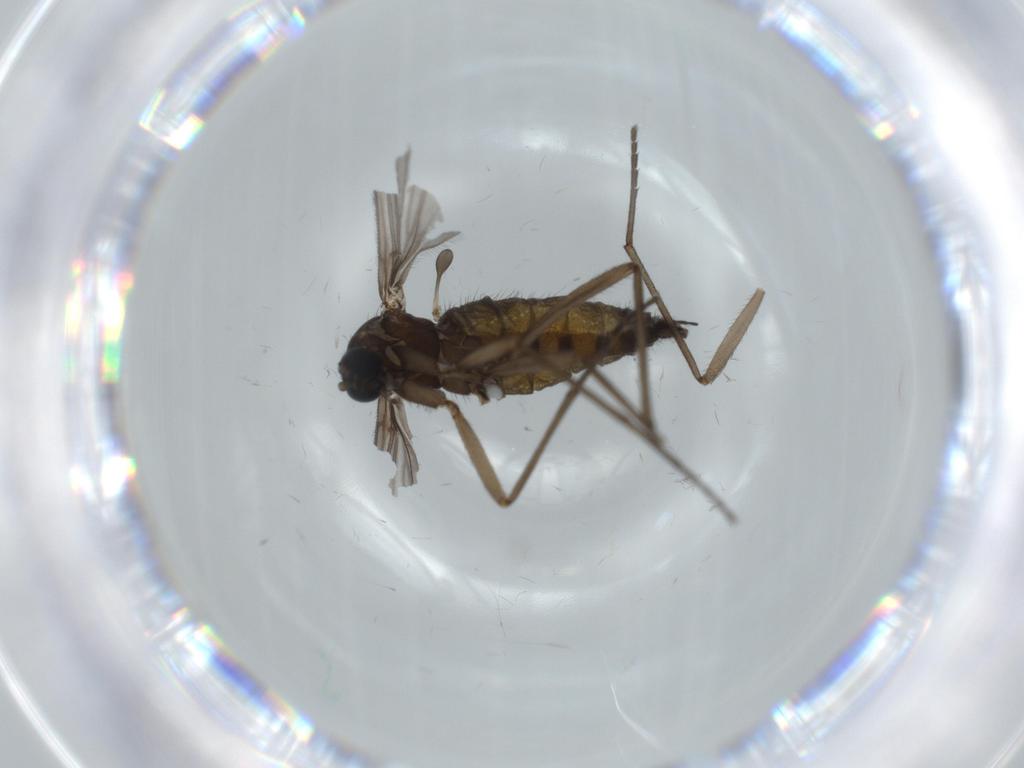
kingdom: Animalia
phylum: Arthropoda
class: Insecta
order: Diptera
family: Sciaridae
